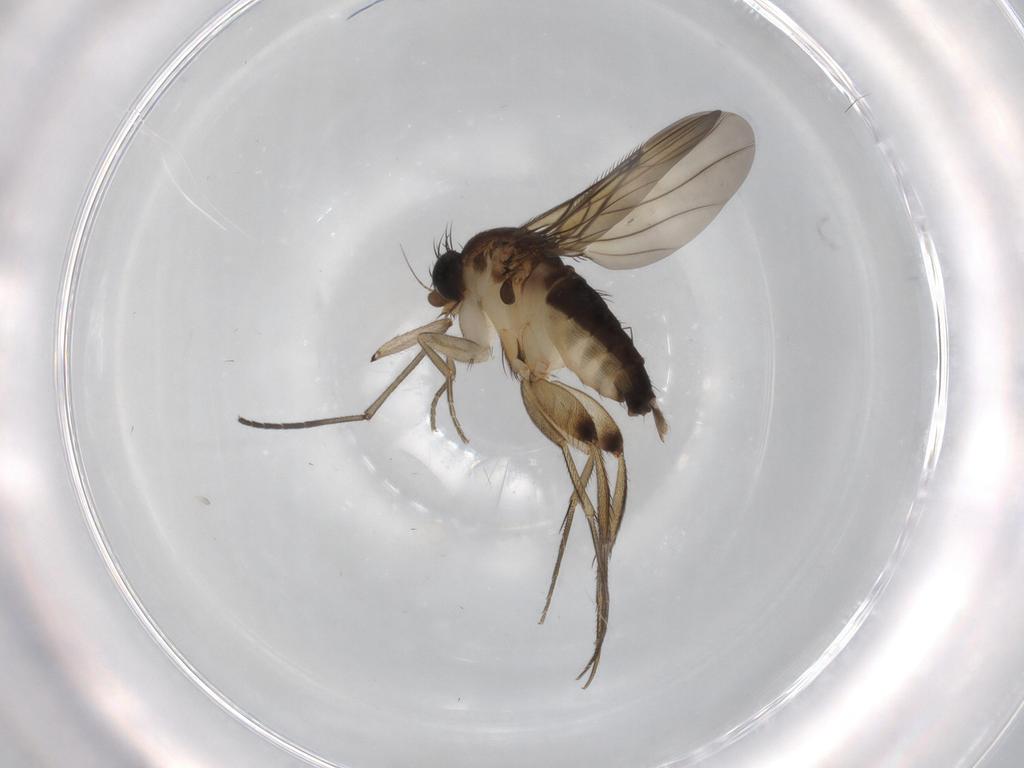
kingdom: Animalia
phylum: Arthropoda
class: Insecta
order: Diptera
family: Phoridae
